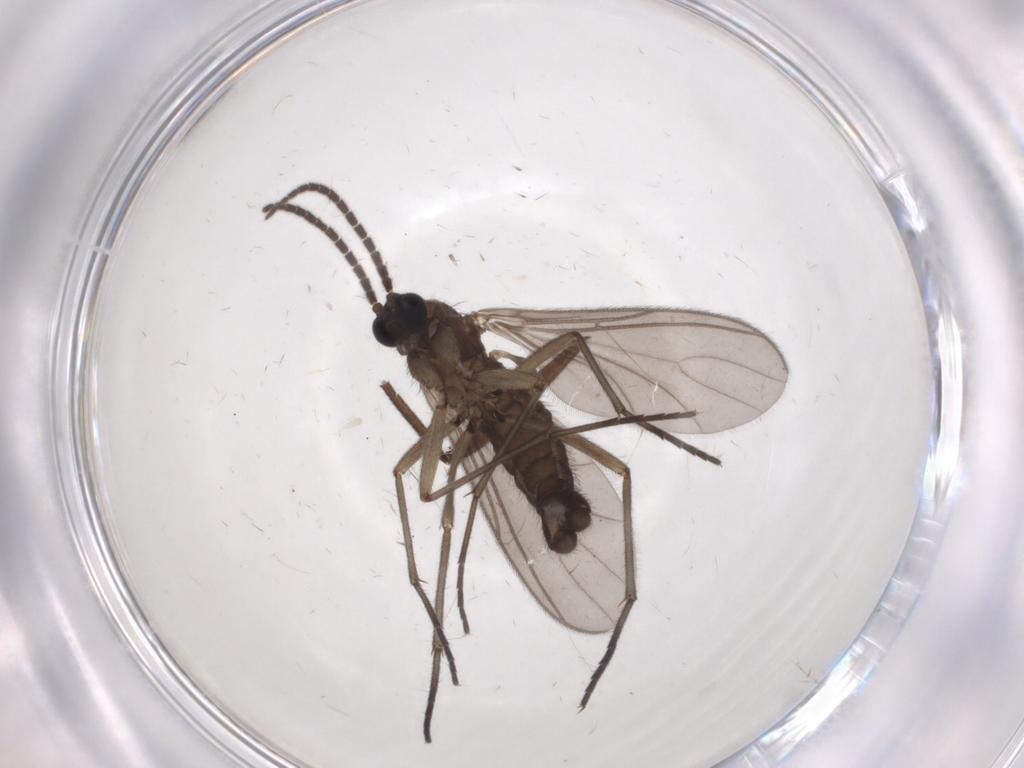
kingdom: Animalia
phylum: Arthropoda
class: Insecta
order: Diptera
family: Sciaridae
